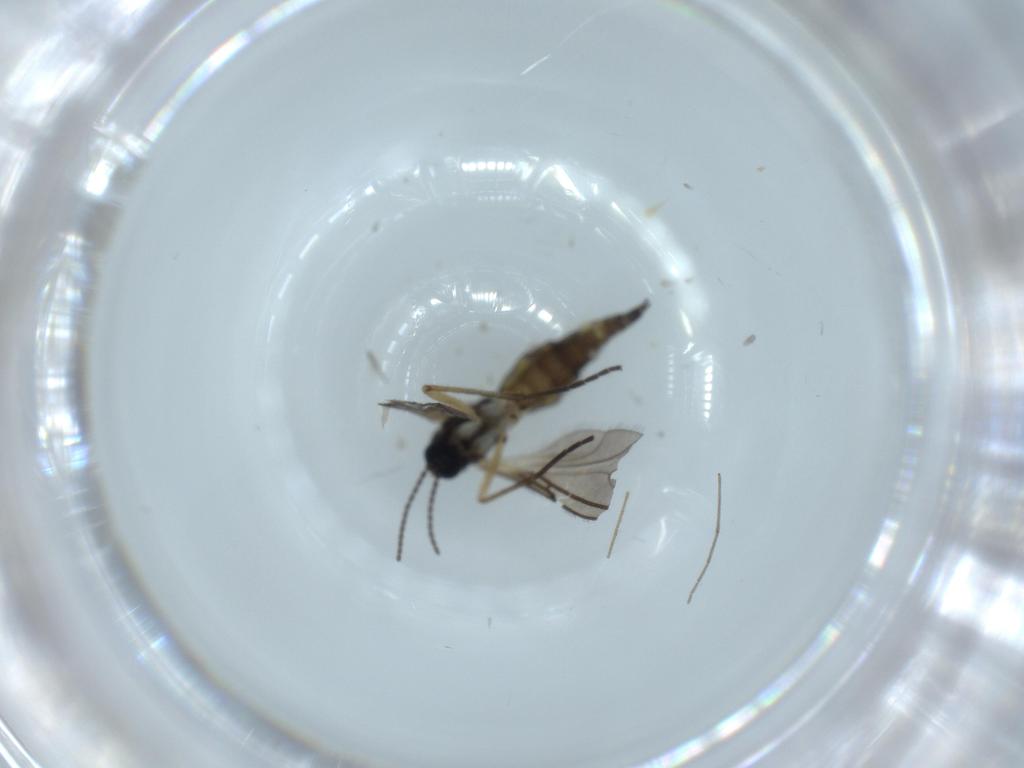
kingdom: Animalia
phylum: Arthropoda
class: Insecta
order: Diptera
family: Sciaridae
